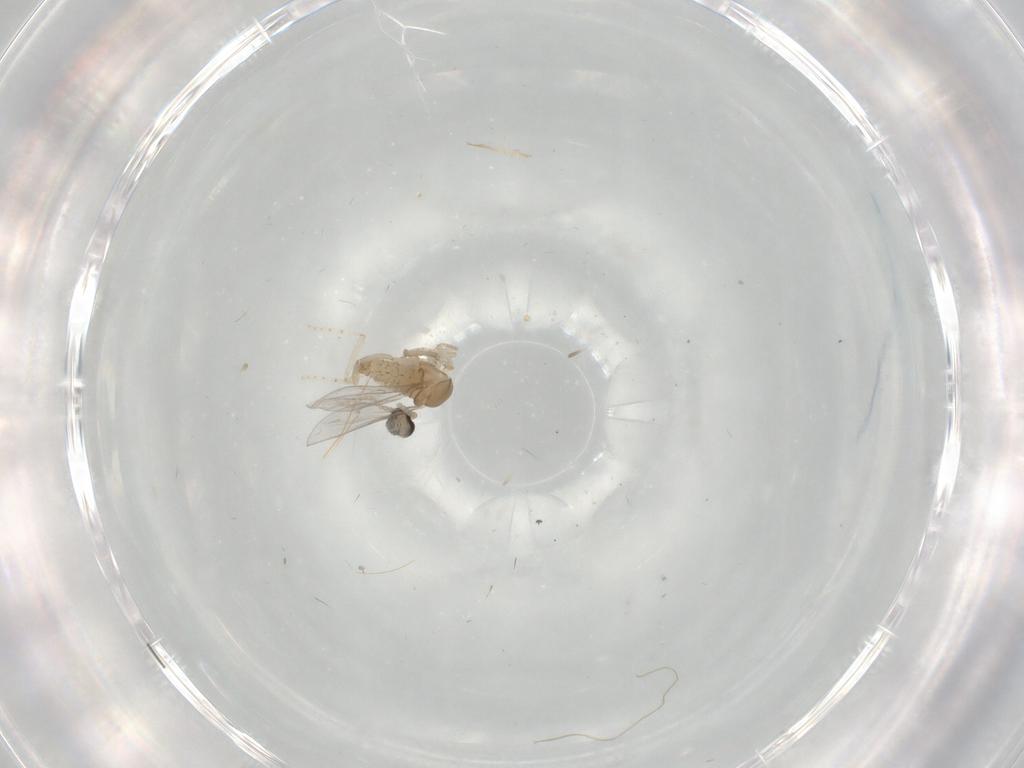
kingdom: Animalia
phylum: Arthropoda
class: Insecta
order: Diptera
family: Cecidomyiidae
